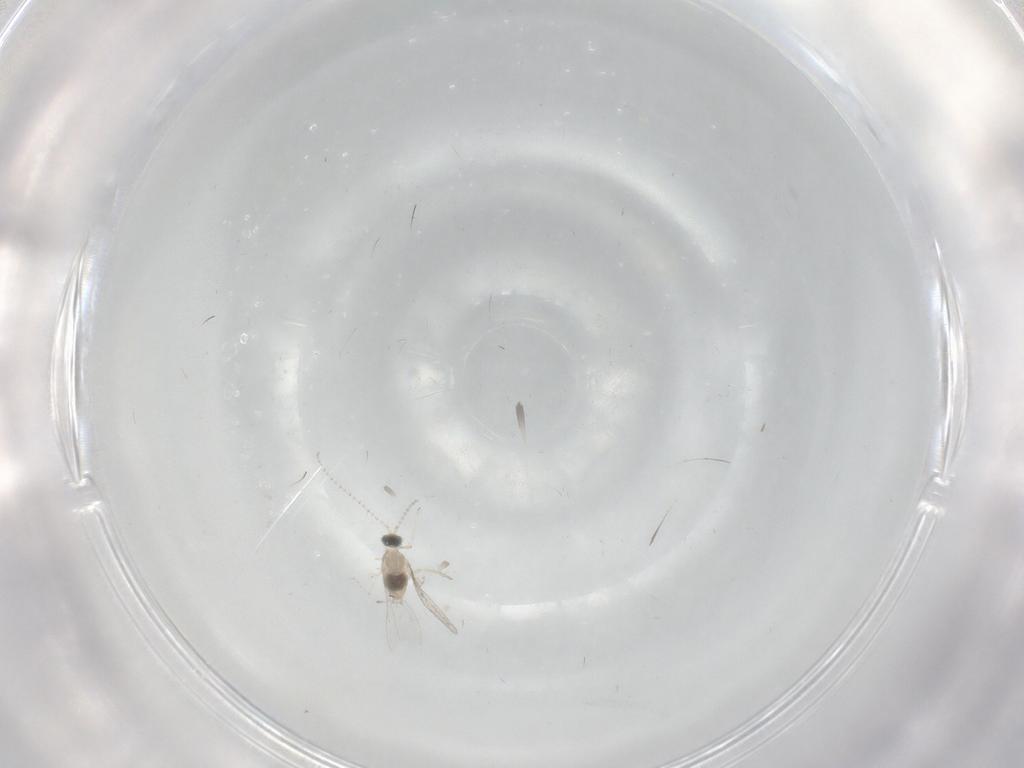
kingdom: Animalia
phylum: Arthropoda
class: Insecta
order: Diptera
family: Cecidomyiidae
